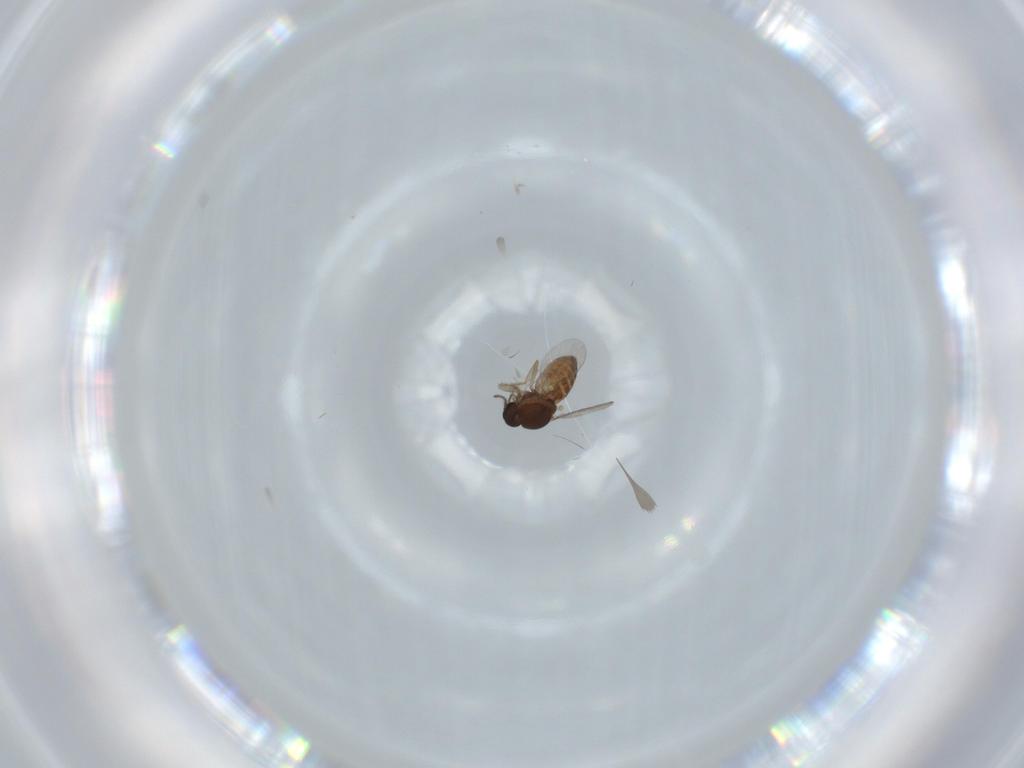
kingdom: Animalia
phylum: Arthropoda
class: Insecta
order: Diptera
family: Ceratopogonidae
